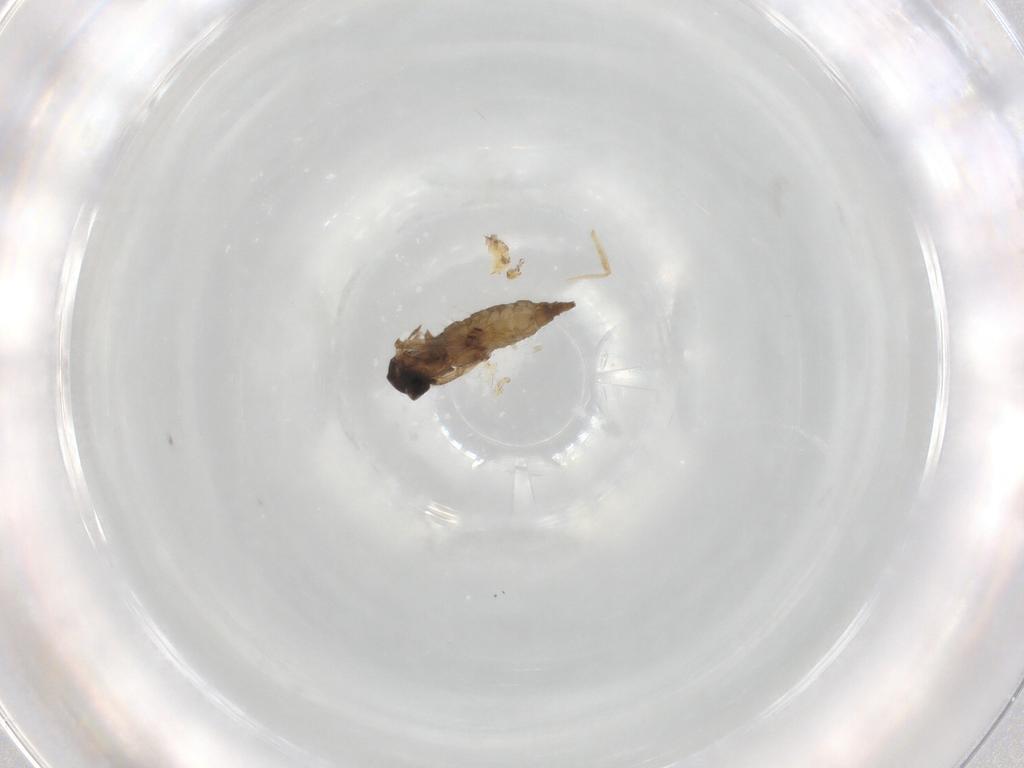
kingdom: Animalia
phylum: Arthropoda
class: Insecta
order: Diptera
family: Sciaridae
